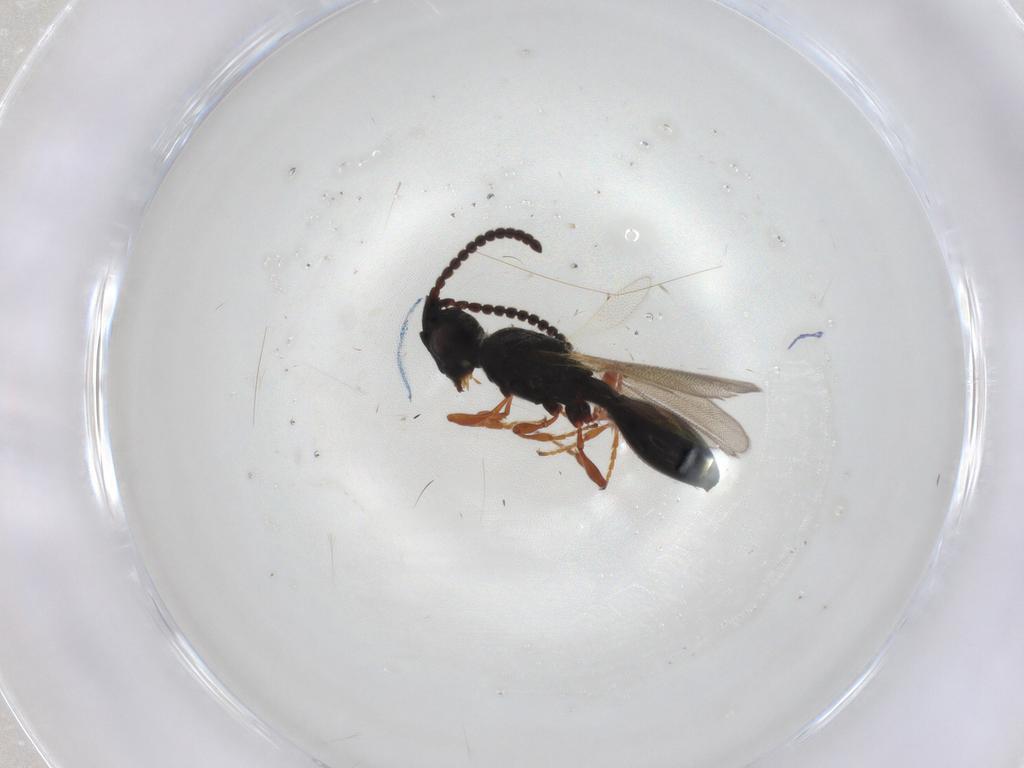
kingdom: Animalia
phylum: Arthropoda
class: Insecta
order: Hymenoptera
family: Diapriidae
